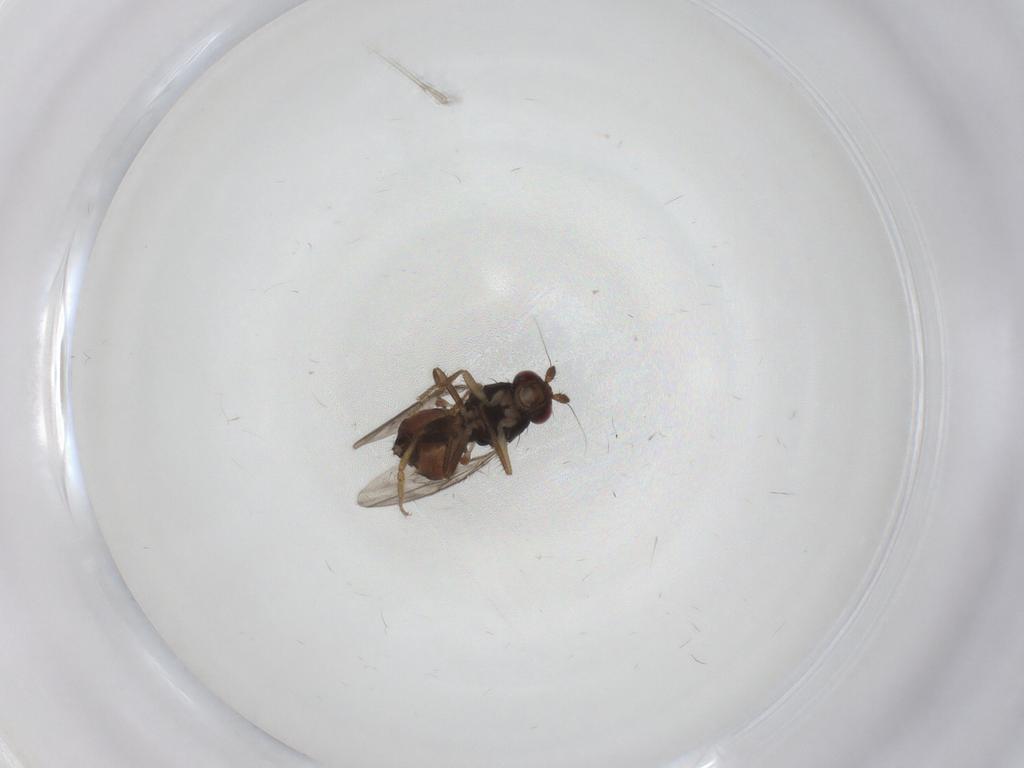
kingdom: Animalia
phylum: Arthropoda
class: Insecta
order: Diptera
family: Sphaeroceridae
